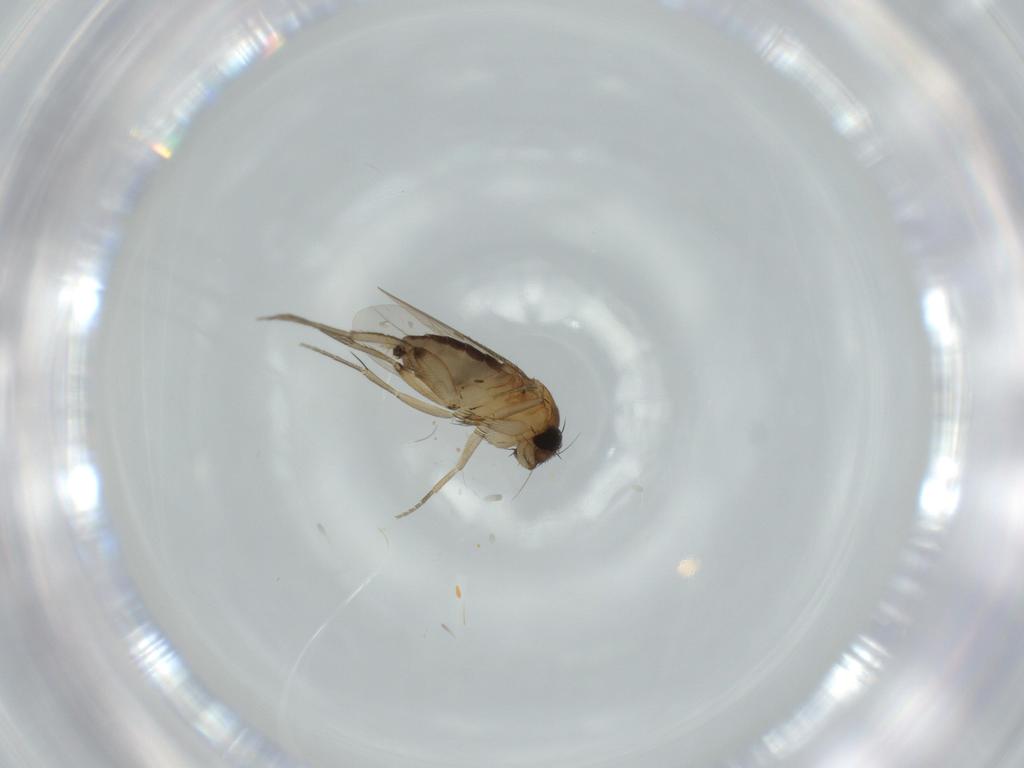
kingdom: Animalia
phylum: Arthropoda
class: Insecta
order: Diptera
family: Phoridae
